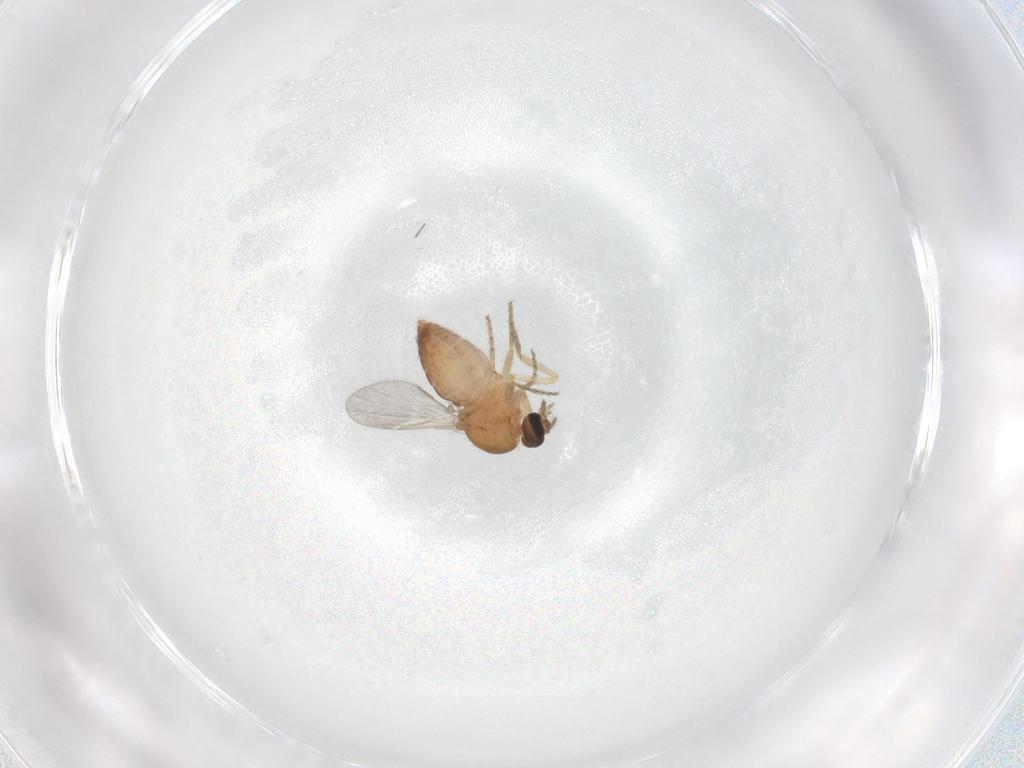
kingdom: Animalia
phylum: Arthropoda
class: Insecta
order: Diptera
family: Ceratopogonidae
